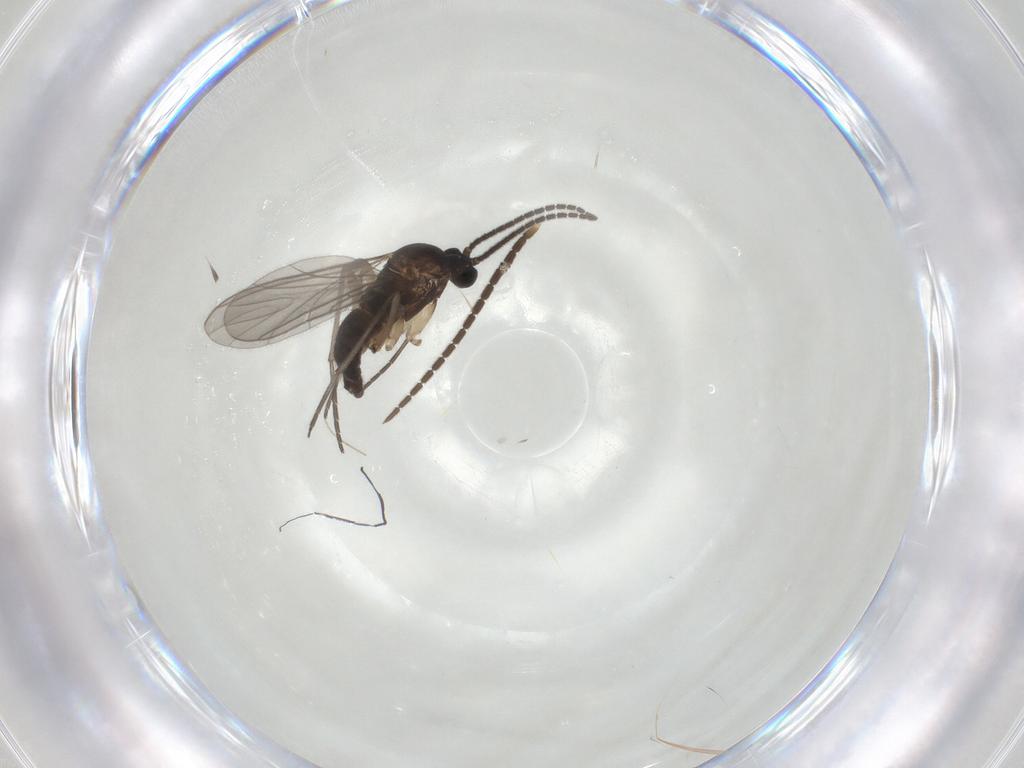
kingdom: Animalia
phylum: Arthropoda
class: Insecta
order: Diptera
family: Sciaridae
